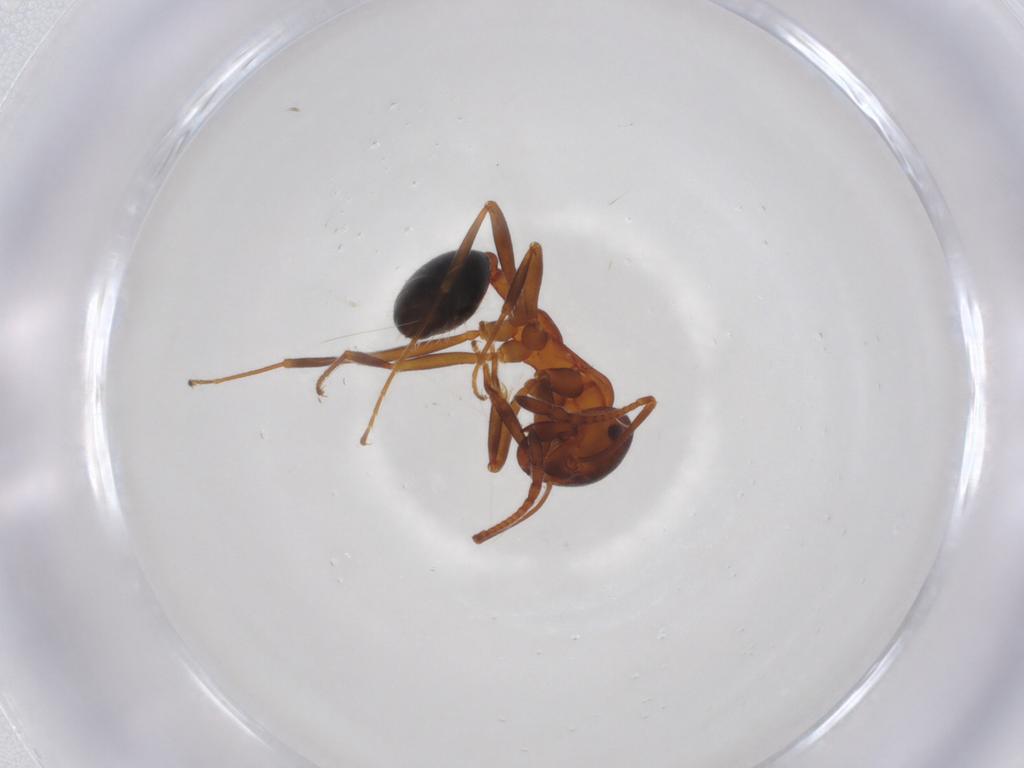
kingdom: Animalia
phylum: Arthropoda
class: Insecta
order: Hymenoptera
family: Formicidae
